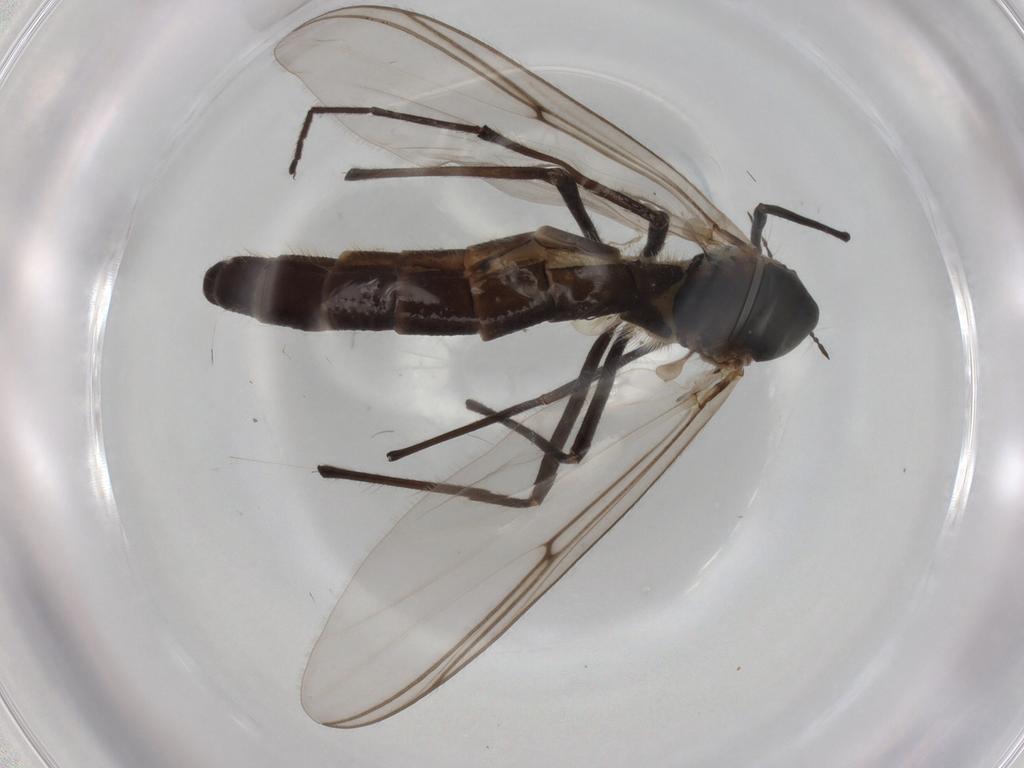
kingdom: Animalia
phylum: Arthropoda
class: Insecta
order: Diptera
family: Chironomidae
